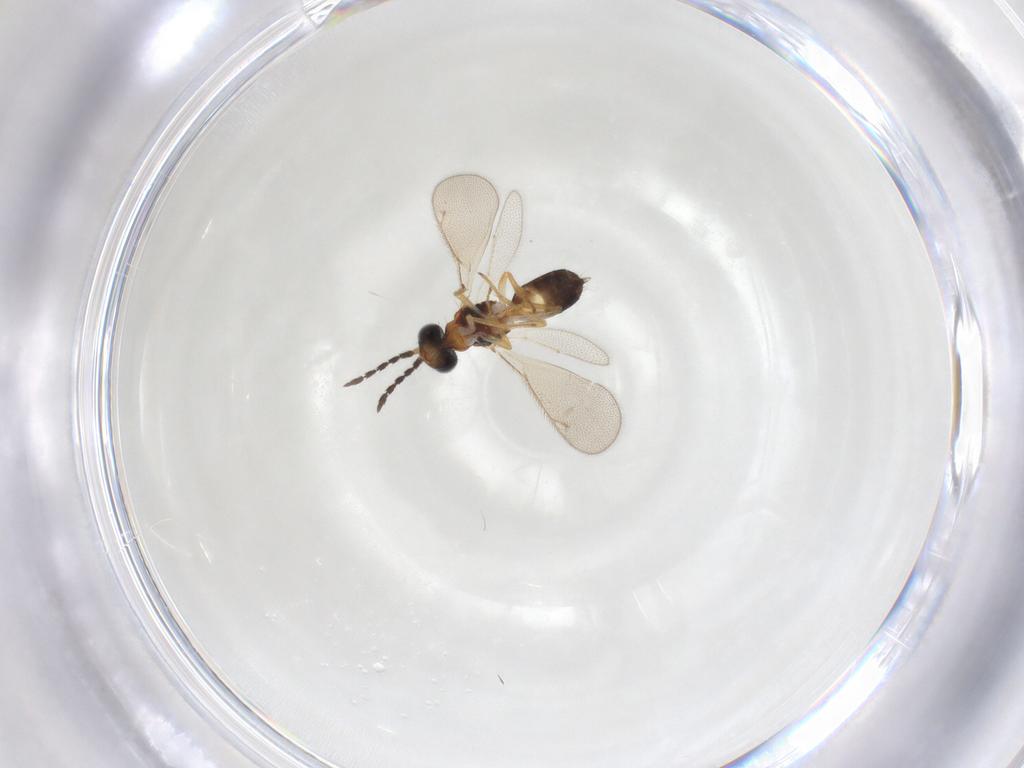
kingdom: Animalia
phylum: Arthropoda
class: Insecta
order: Hymenoptera
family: Eulophidae
